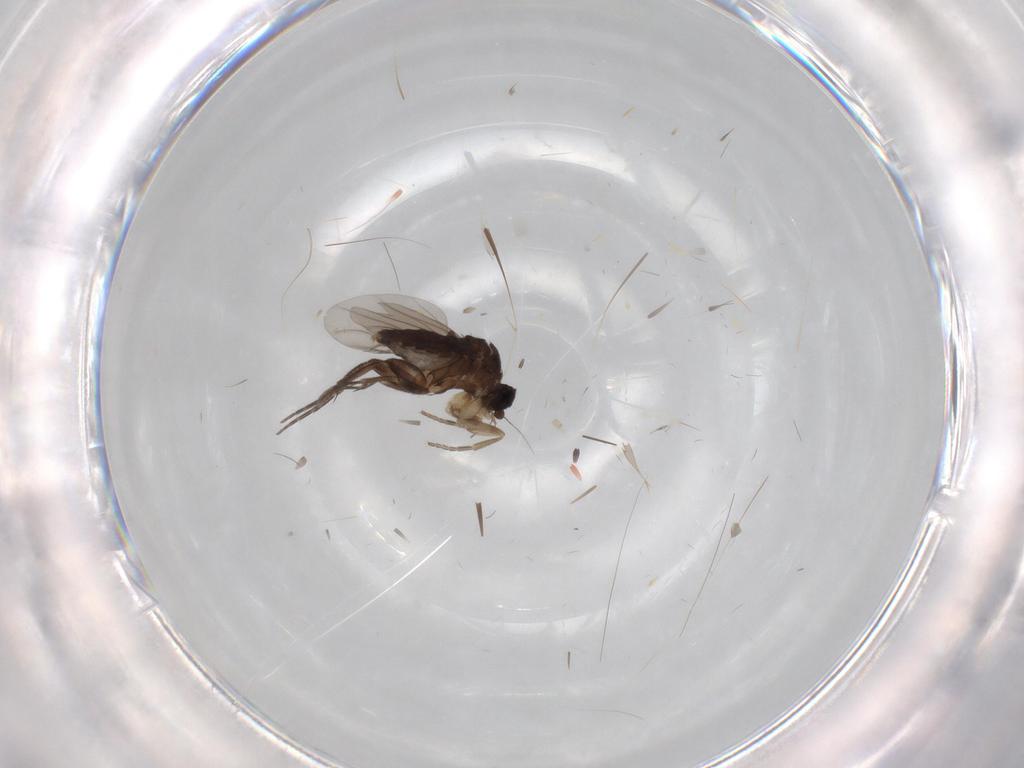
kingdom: Animalia
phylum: Arthropoda
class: Insecta
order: Diptera
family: Phoridae
